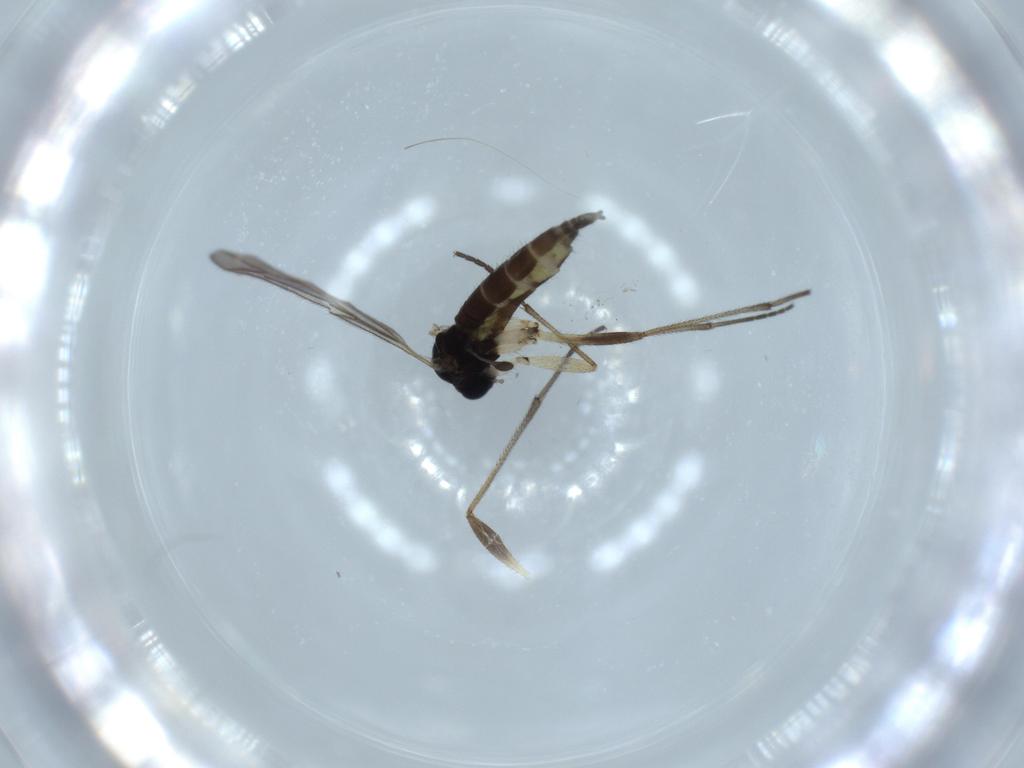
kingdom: Animalia
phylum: Arthropoda
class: Insecta
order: Diptera
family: Sciaridae
